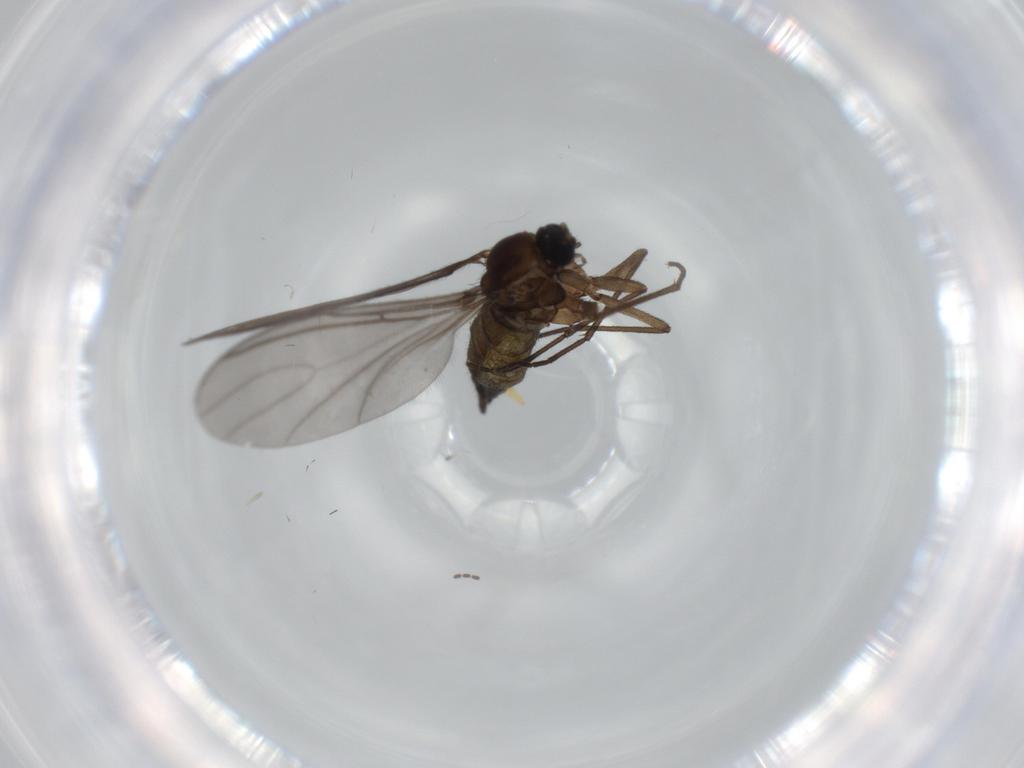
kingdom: Animalia
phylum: Arthropoda
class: Insecta
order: Diptera
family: Sciaridae
